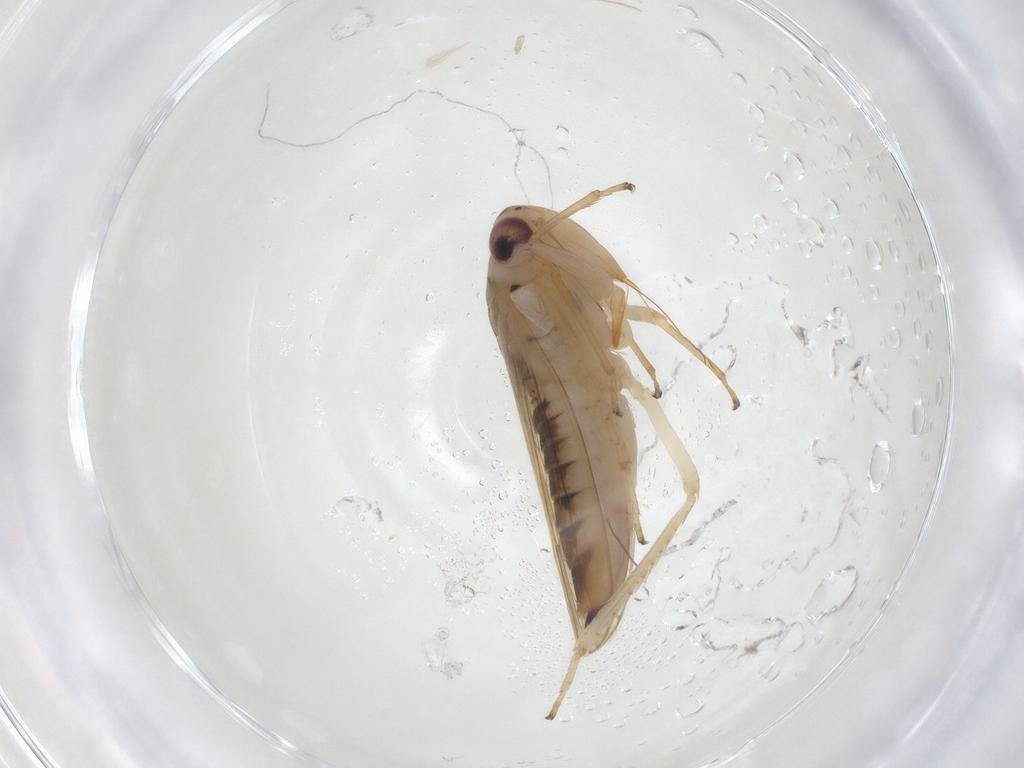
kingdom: Animalia
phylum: Arthropoda
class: Insecta
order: Hemiptera
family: Cicadellidae
